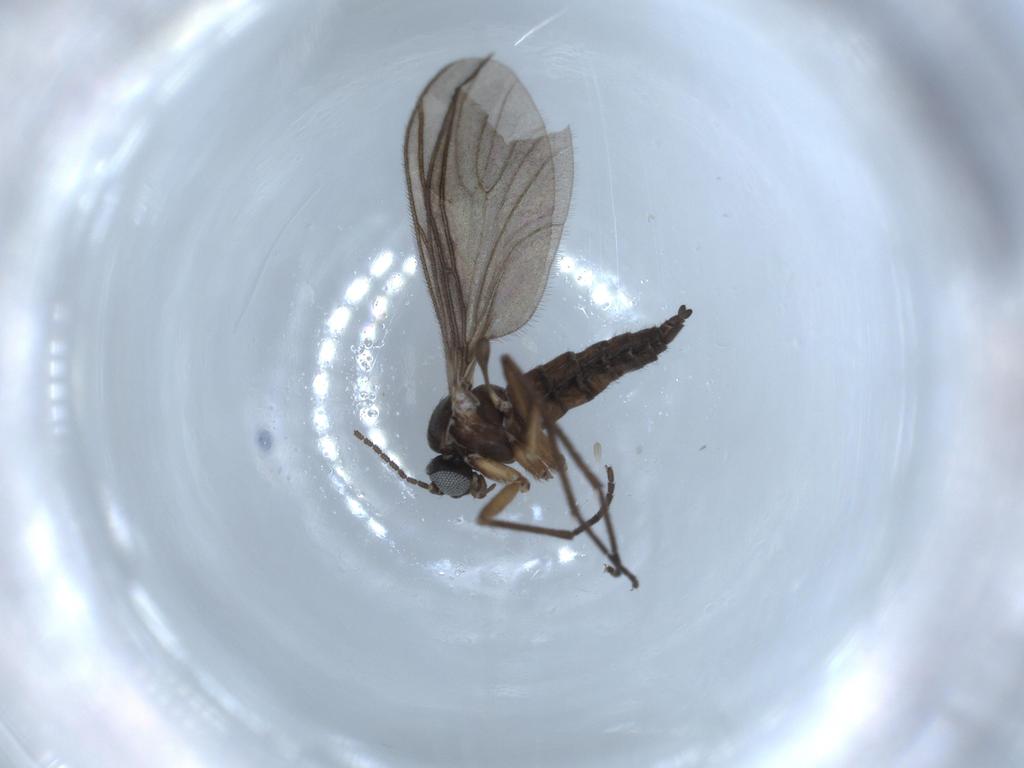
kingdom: Animalia
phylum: Arthropoda
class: Insecta
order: Diptera
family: Sciaridae
